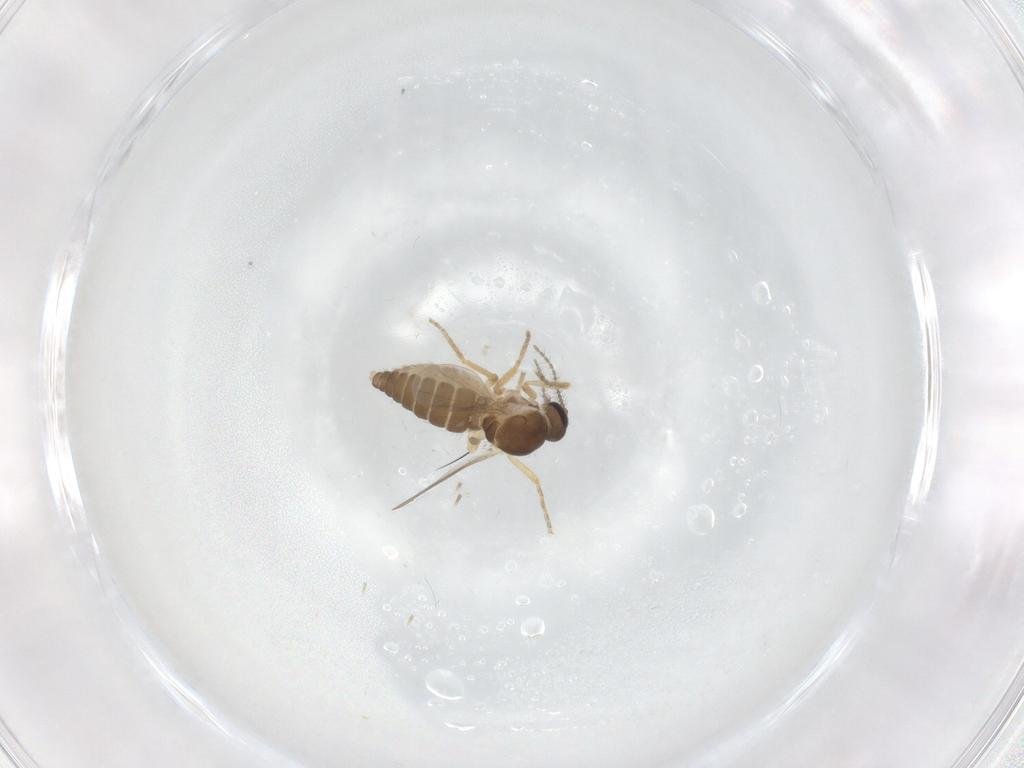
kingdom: Animalia
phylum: Arthropoda
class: Insecta
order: Diptera
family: Ceratopogonidae
